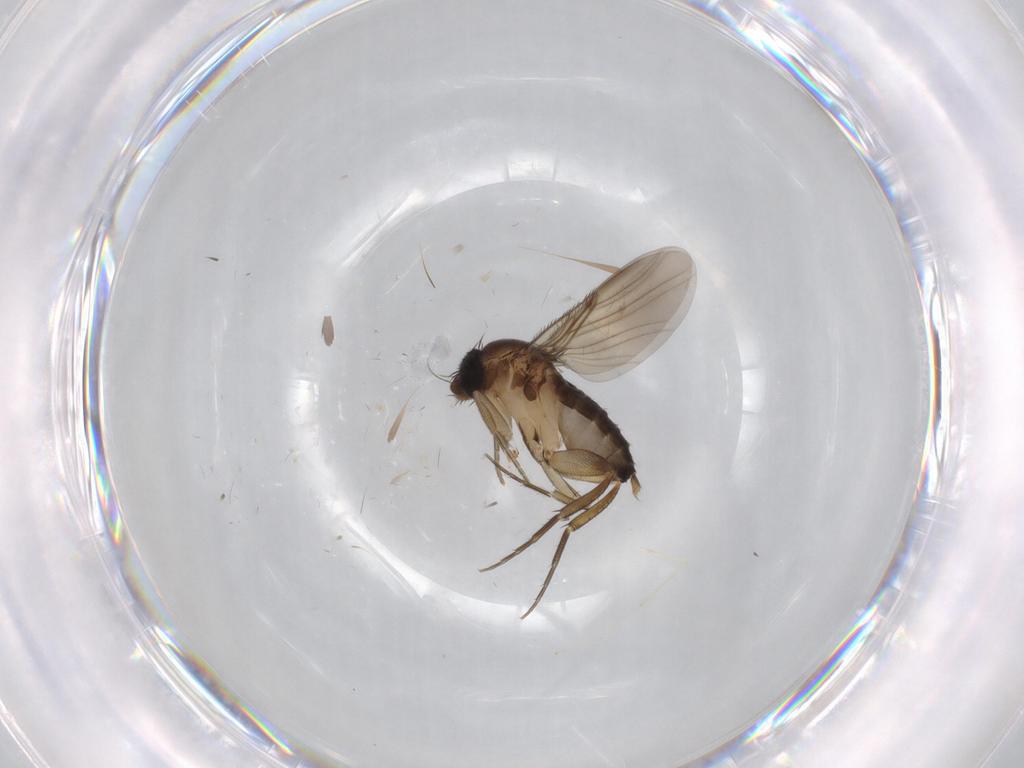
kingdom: Animalia
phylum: Arthropoda
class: Insecta
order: Diptera
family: Phoridae
